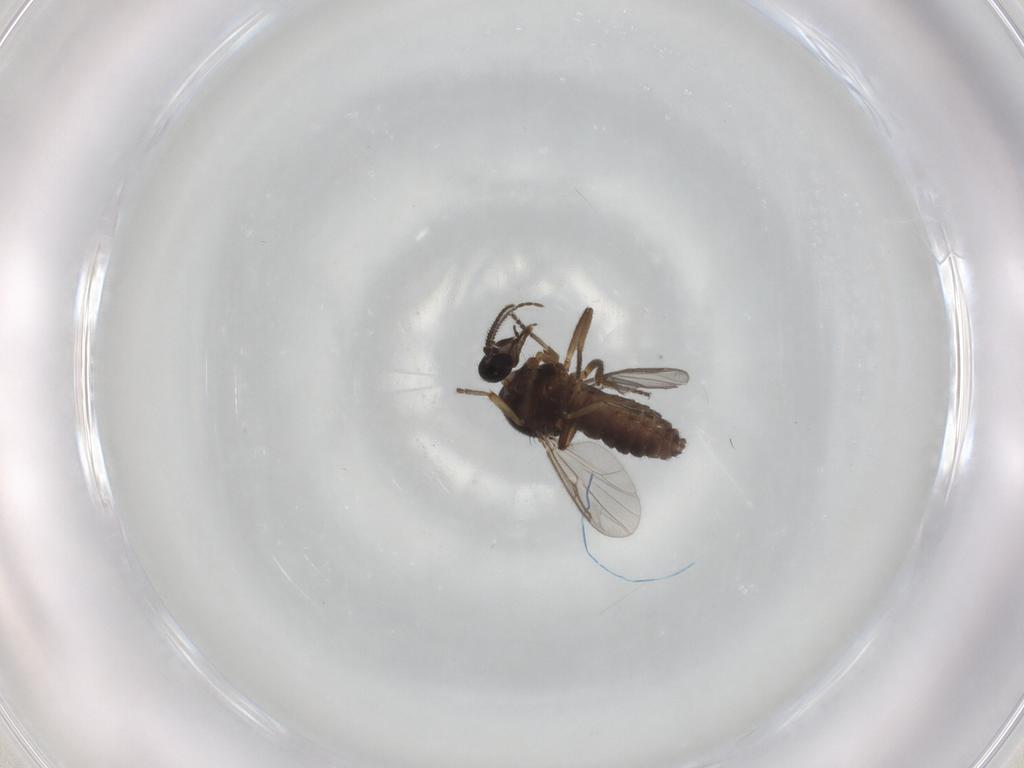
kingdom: Animalia
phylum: Arthropoda
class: Insecta
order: Diptera
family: Ceratopogonidae
